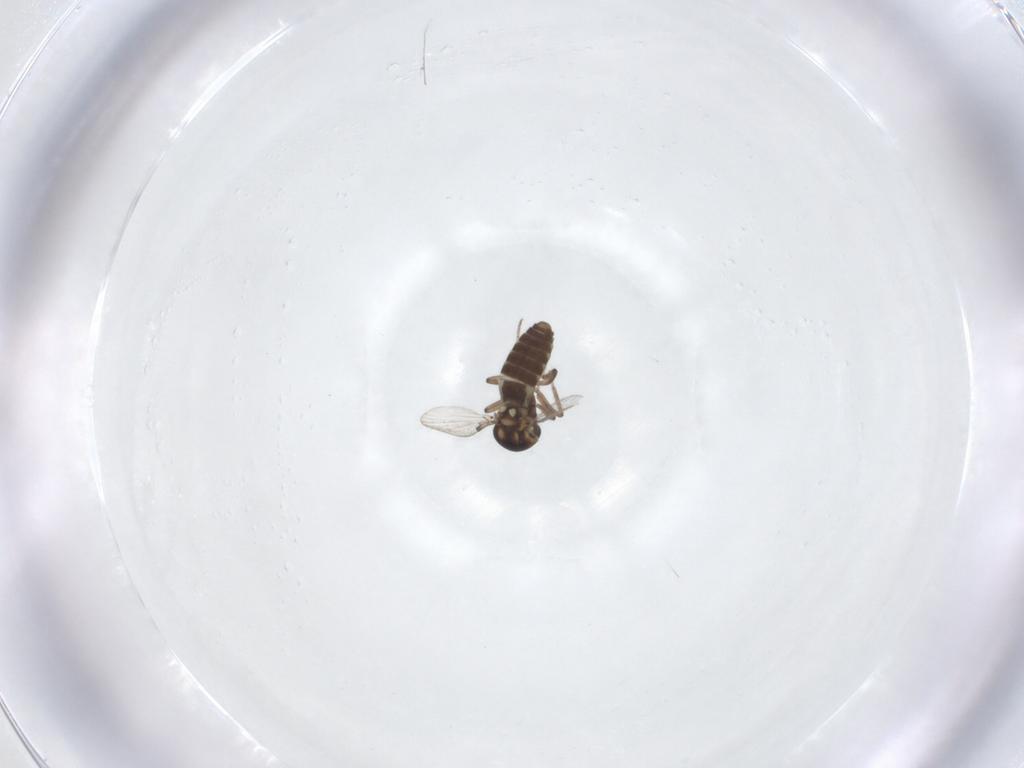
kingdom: Animalia
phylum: Arthropoda
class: Insecta
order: Diptera
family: Ceratopogonidae
